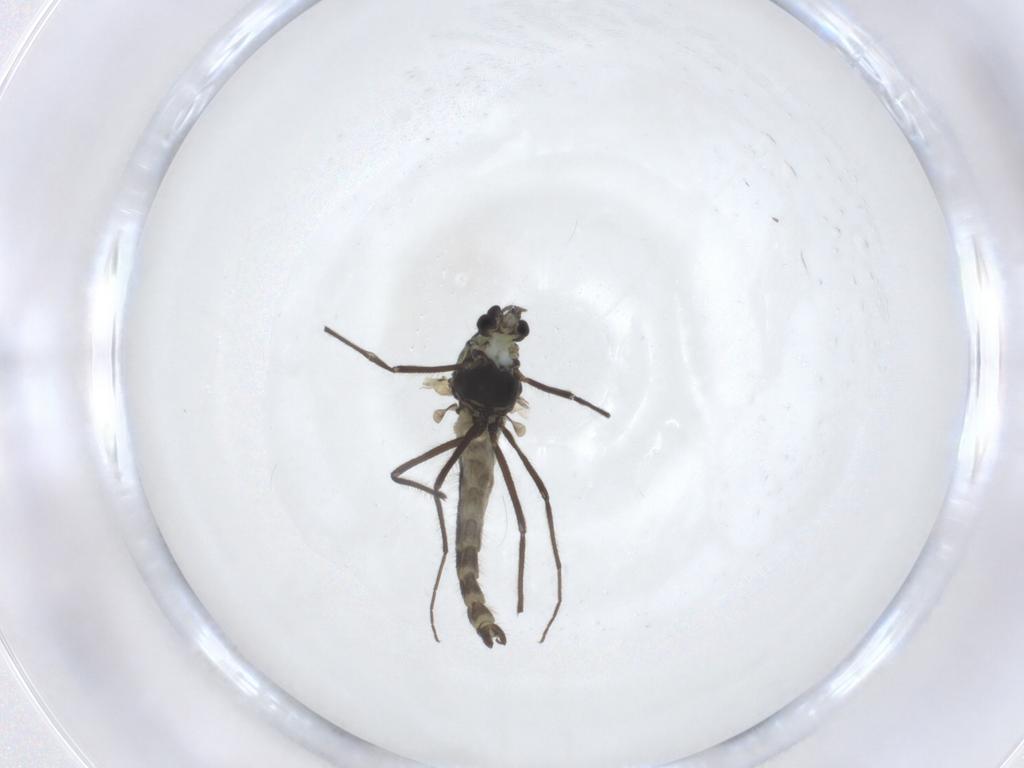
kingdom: Animalia
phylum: Arthropoda
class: Insecta
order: Diptera
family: Chironomidae
